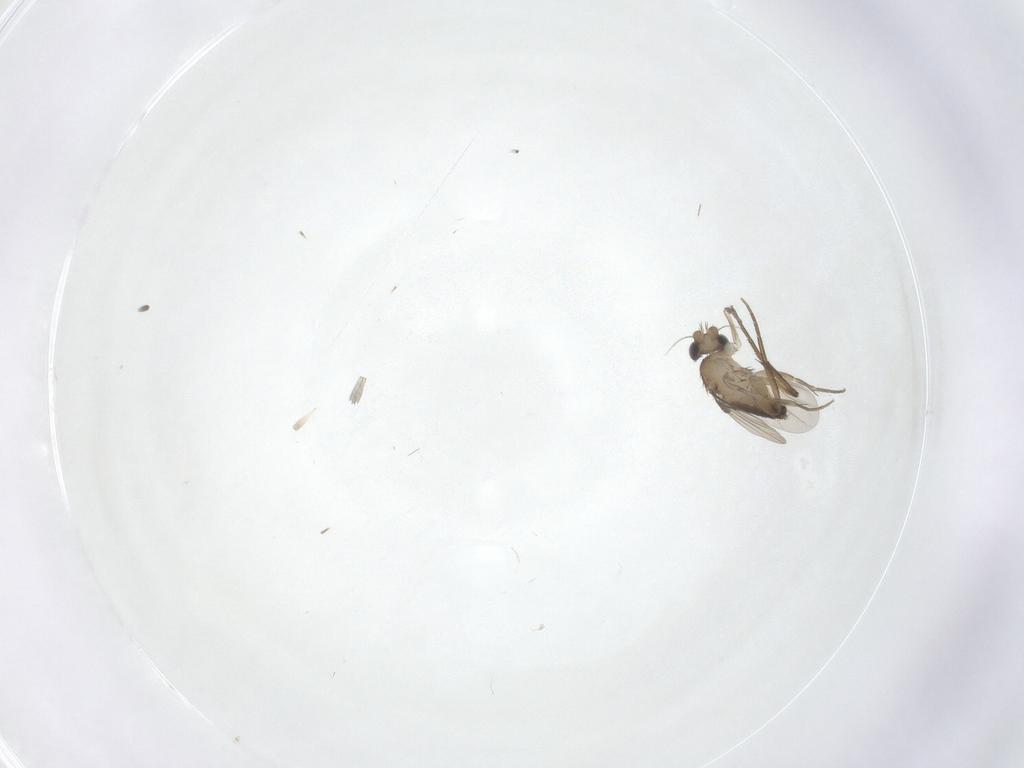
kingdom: Animalia
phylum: Arthropoda
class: Insecta
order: Diptera
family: Phoridae
